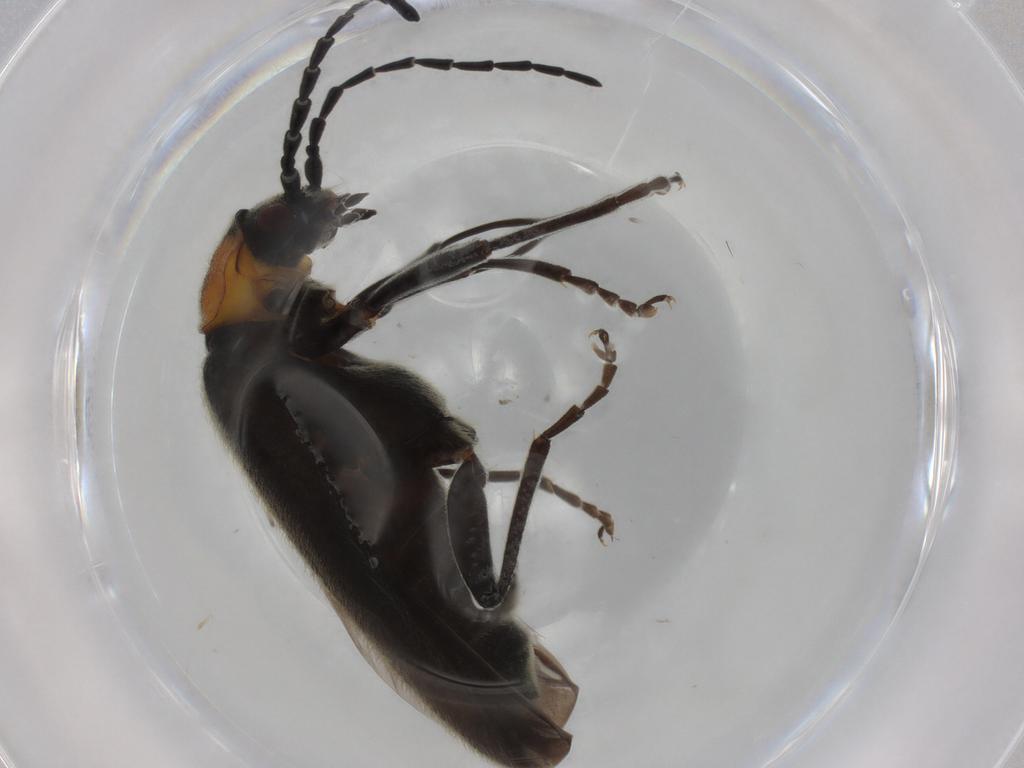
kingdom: Animalia
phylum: Arthropoda
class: Insecta
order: Coleoptera
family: Cantharidae
